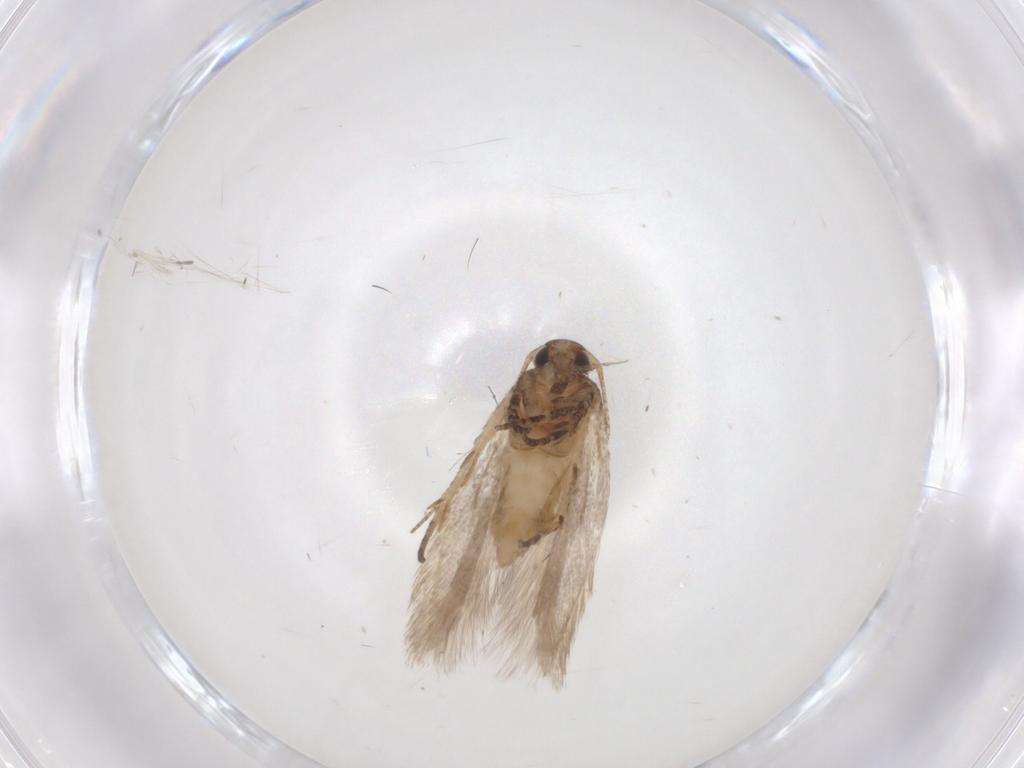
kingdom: Animalia
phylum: Arthropoda
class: Insecta
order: Lepidoptera
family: Gelechiidae
